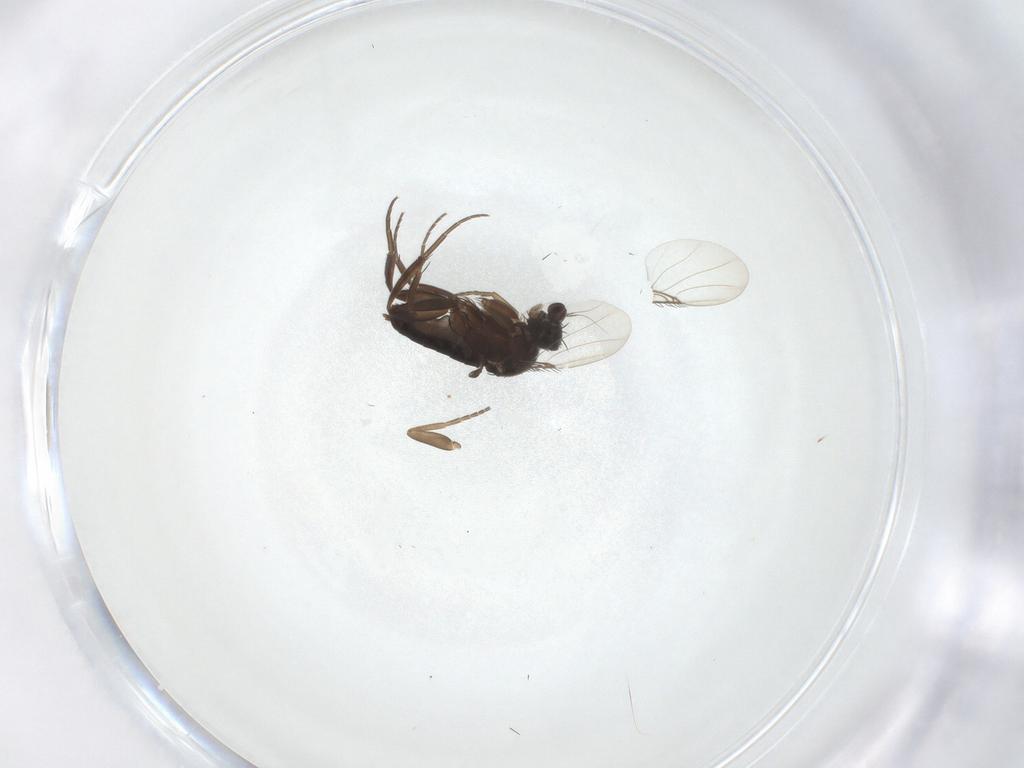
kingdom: Animalia
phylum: Arthropoda
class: Insecta
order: Diptera
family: Phoridae
